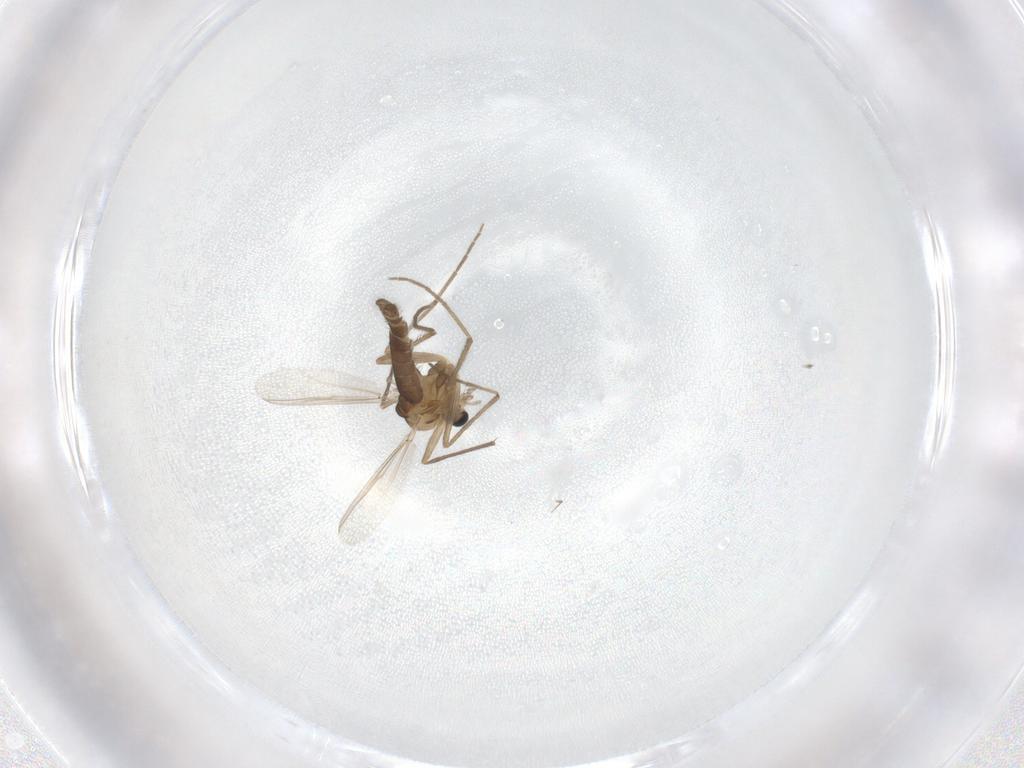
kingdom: Animalia
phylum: Arthropoda
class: Insecta
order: Diptera
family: Chironomidae
